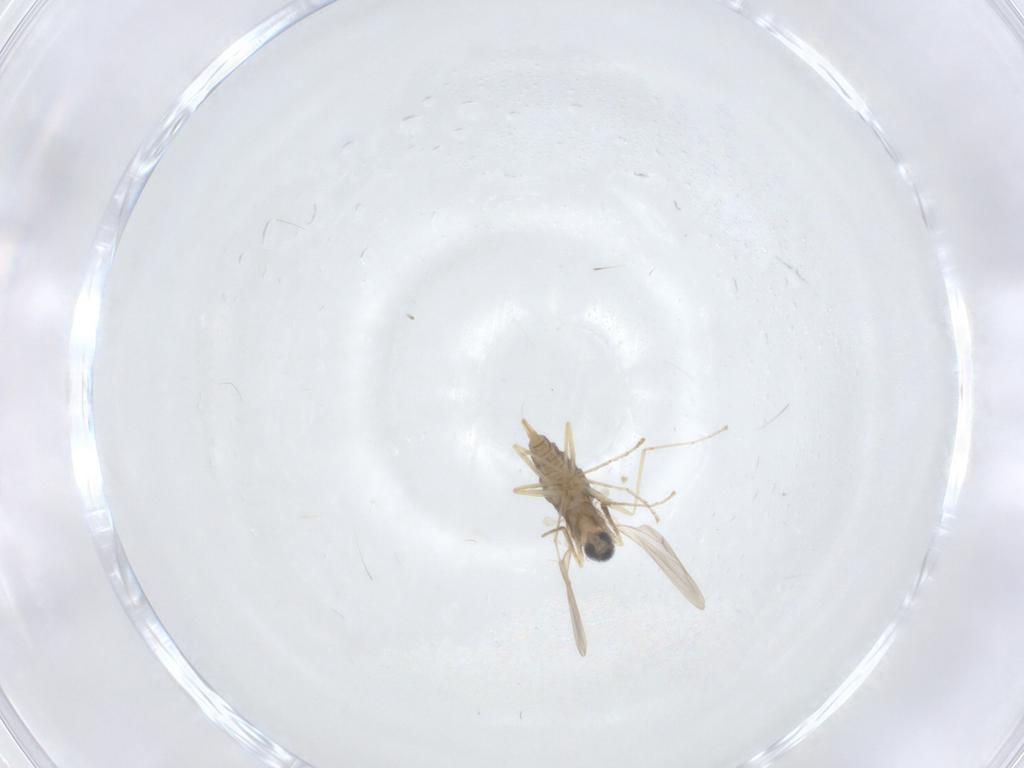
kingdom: Animalia
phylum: Arthropoda
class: Insecta
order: Diptera
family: Cecidomyiidae
